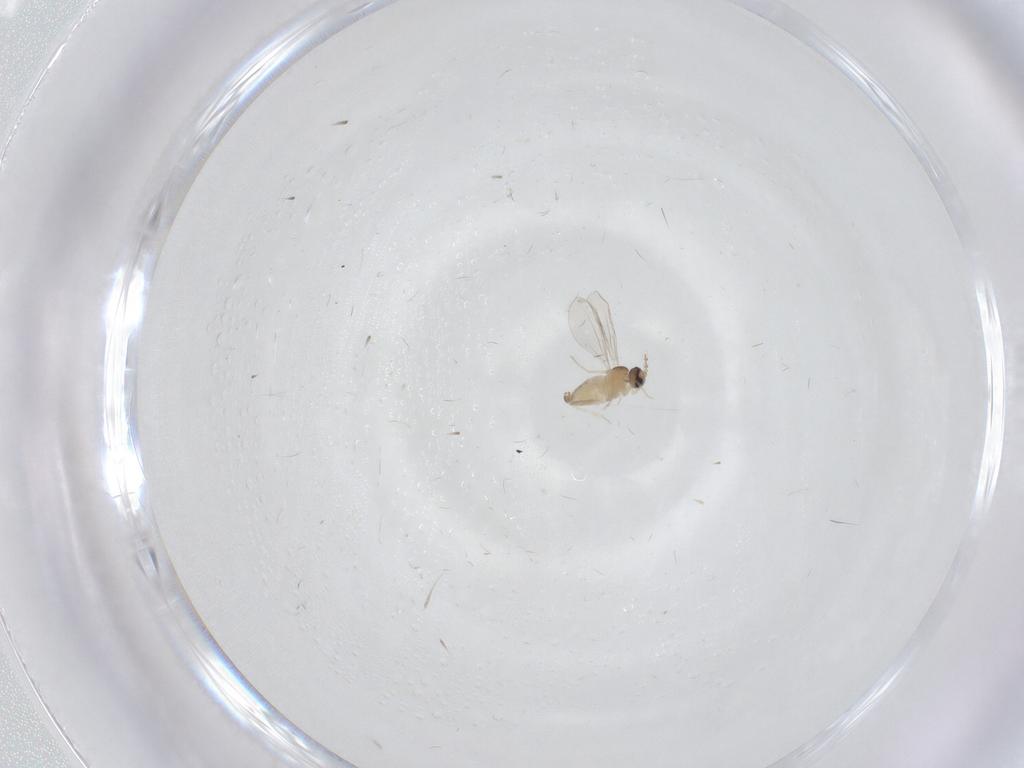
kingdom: Animalia
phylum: Arthropoda
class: Insecta
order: Diptera
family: Cecidomyiidae
